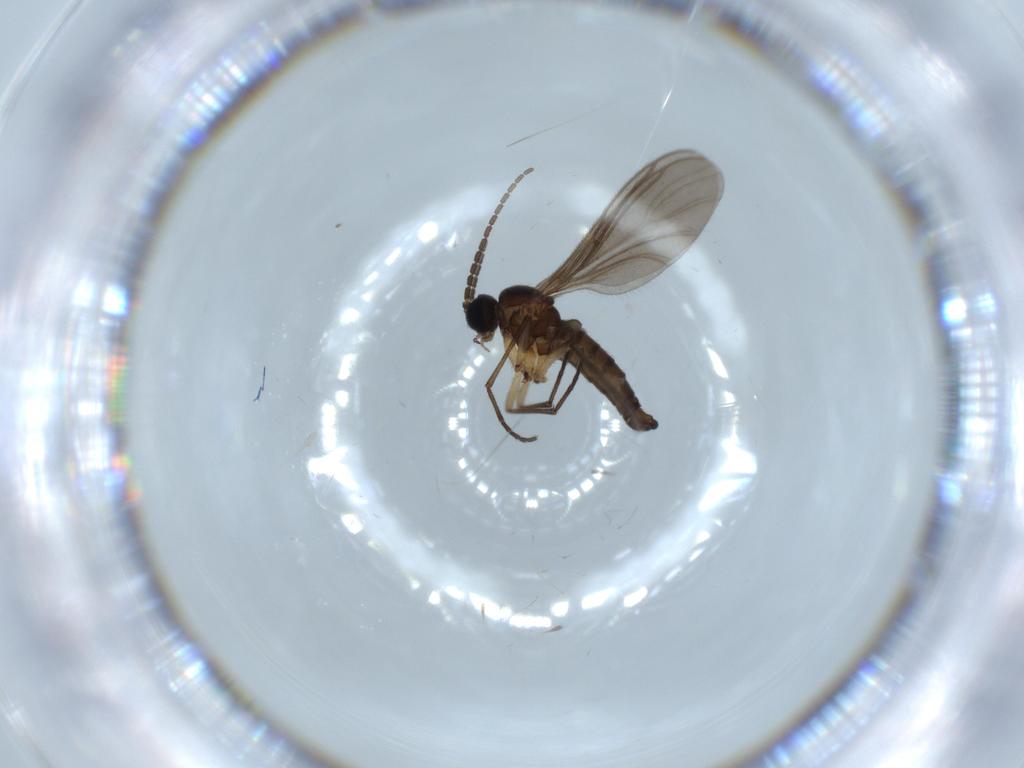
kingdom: Animalia
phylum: Arthropoda
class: Insecta
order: Diptera
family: Sciaridae
